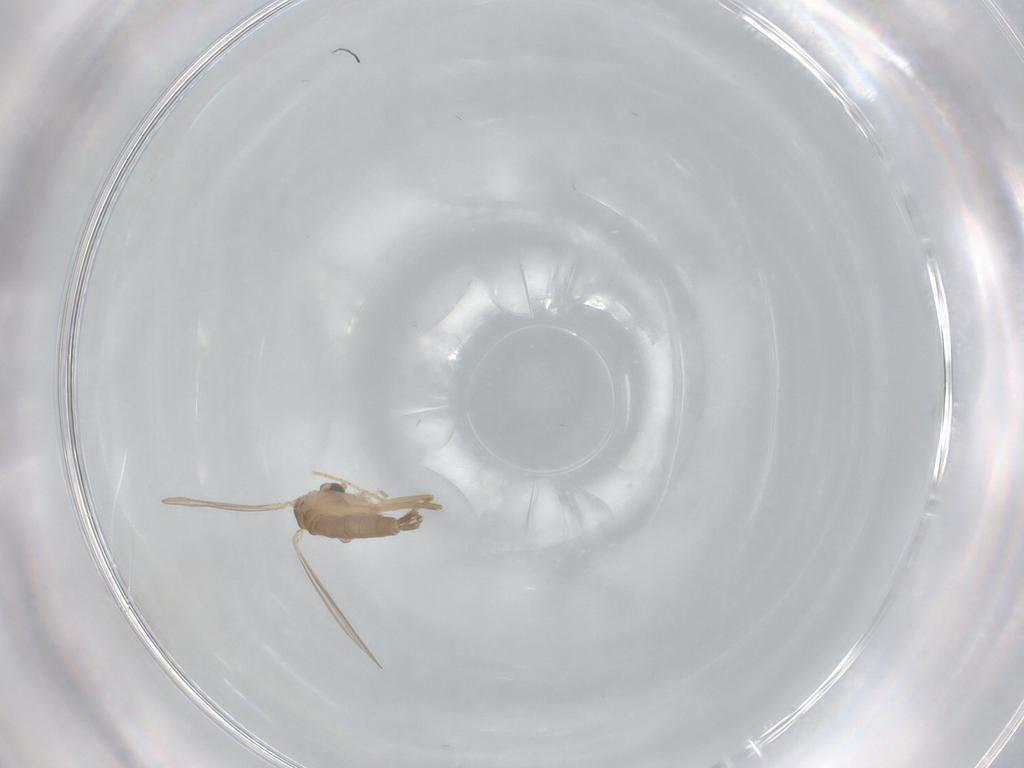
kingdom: Animalia
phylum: Arthropoda
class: Insecta
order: Diptera
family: Psychodidae
